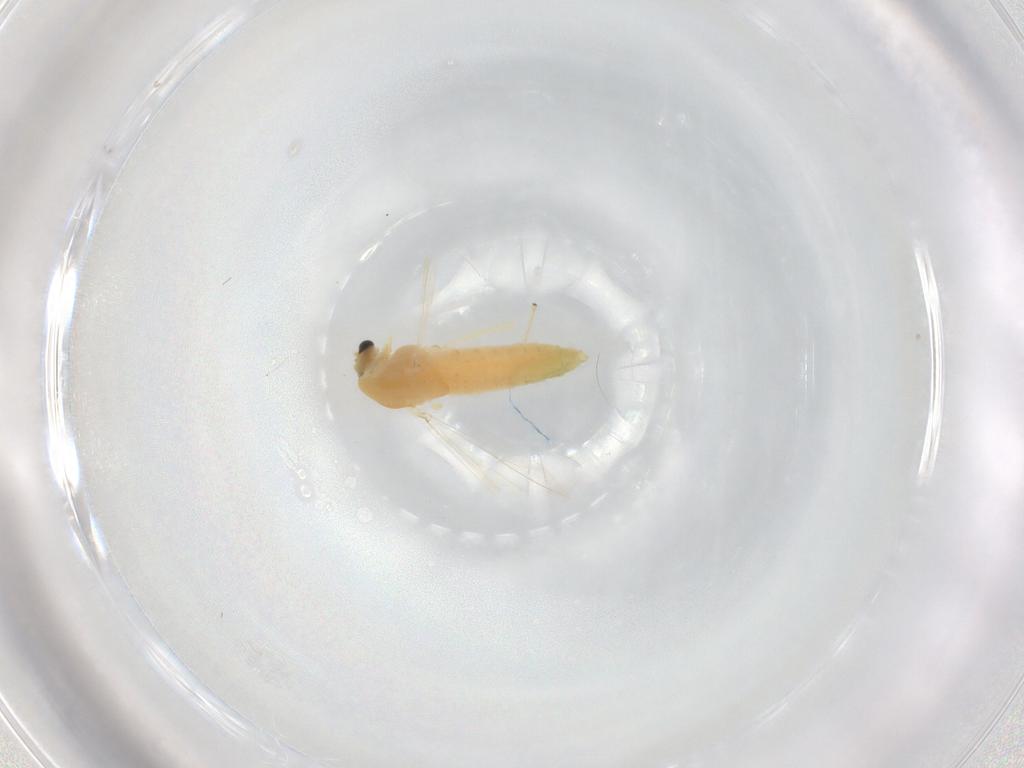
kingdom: Animalia
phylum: Arthropoda
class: Insecta
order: Diptera
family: Chironomidae
